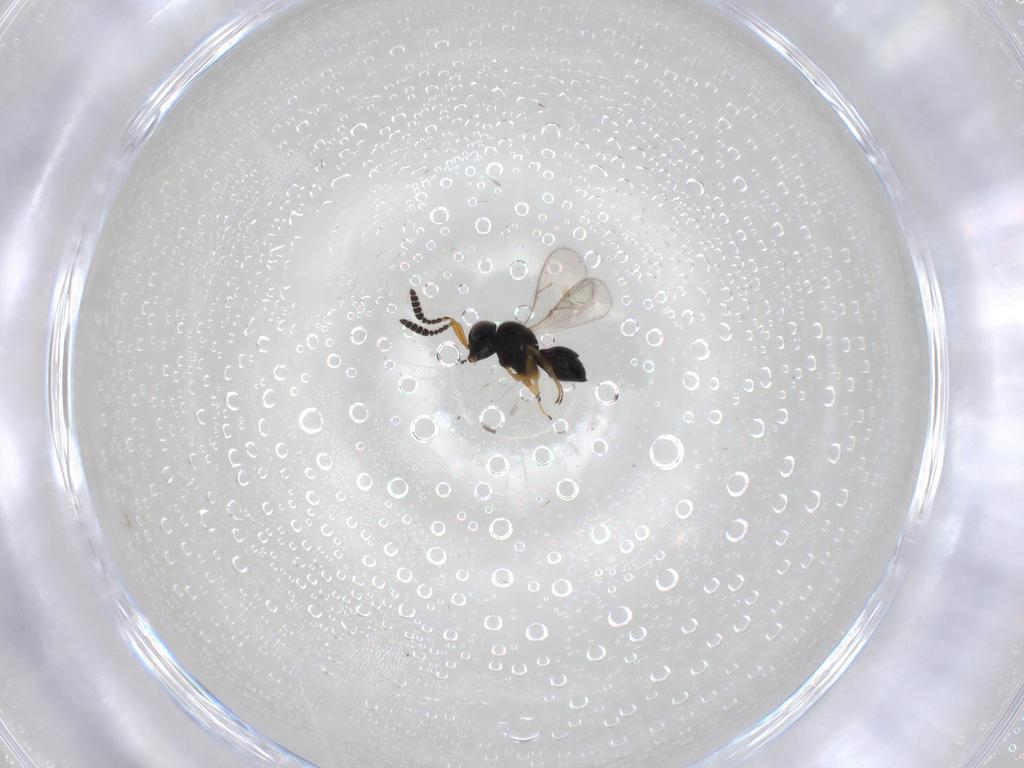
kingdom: Animalia
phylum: Arthropoda
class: Insecta
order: Hymenoptera
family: Scelionidae
